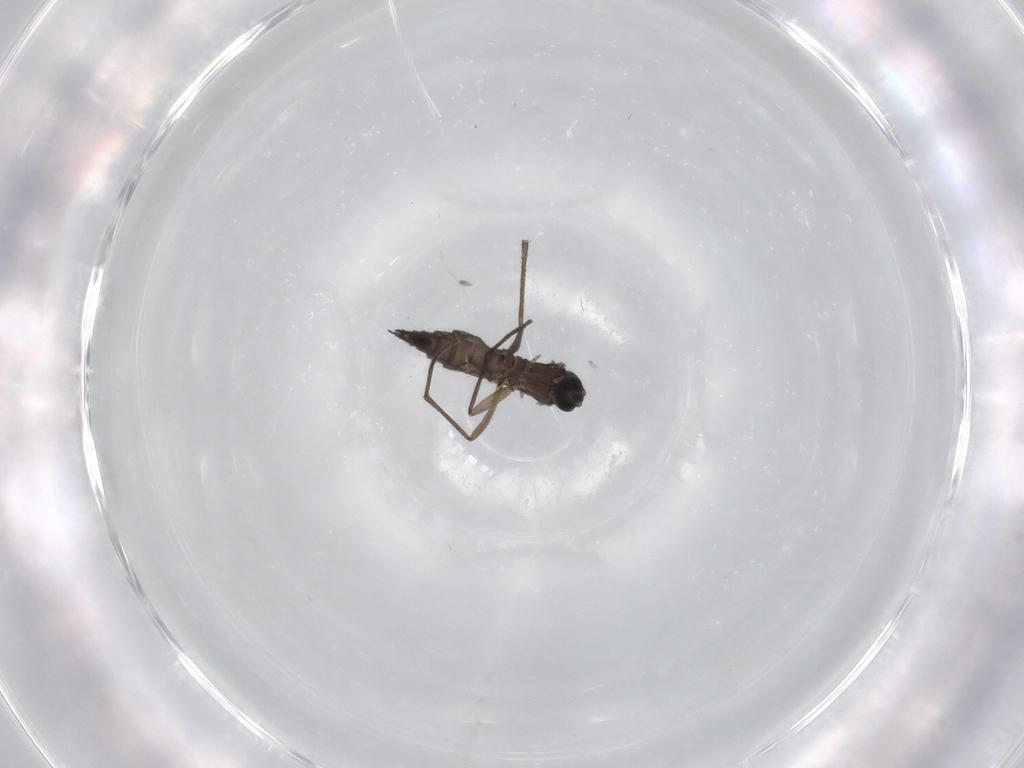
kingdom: Animalia
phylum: Arthropoda
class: Insecta
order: Diptera
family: Sciaridae
